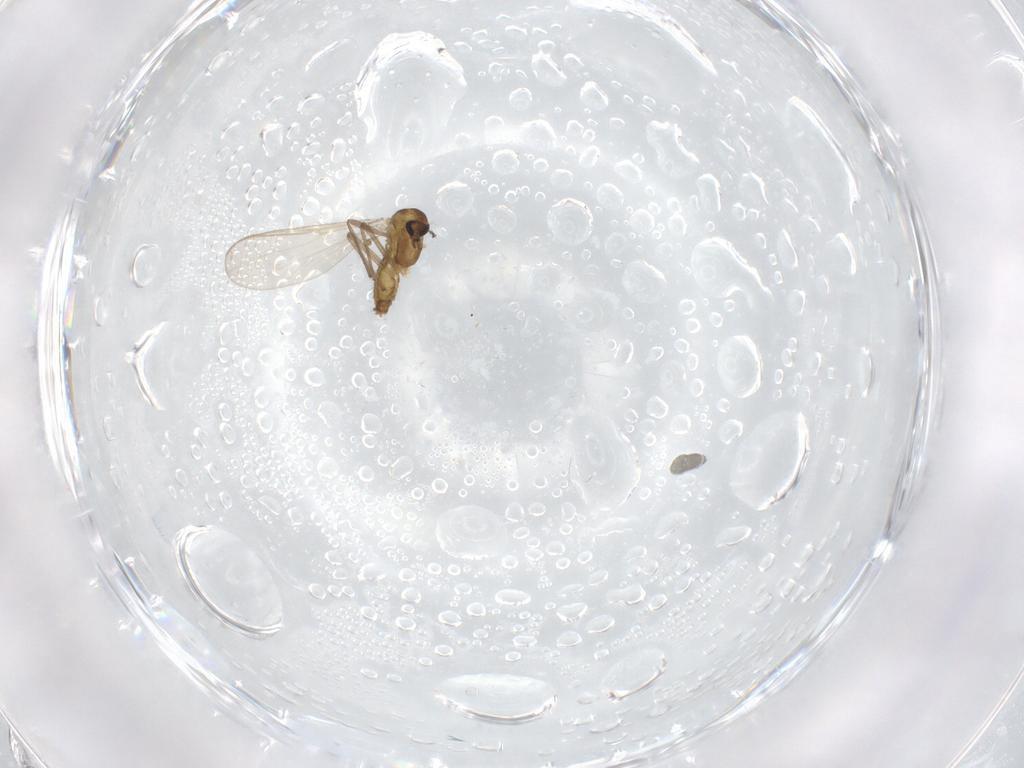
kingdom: Animalia
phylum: Arthropoda
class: Insecta
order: Diptera
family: Chironomidae
